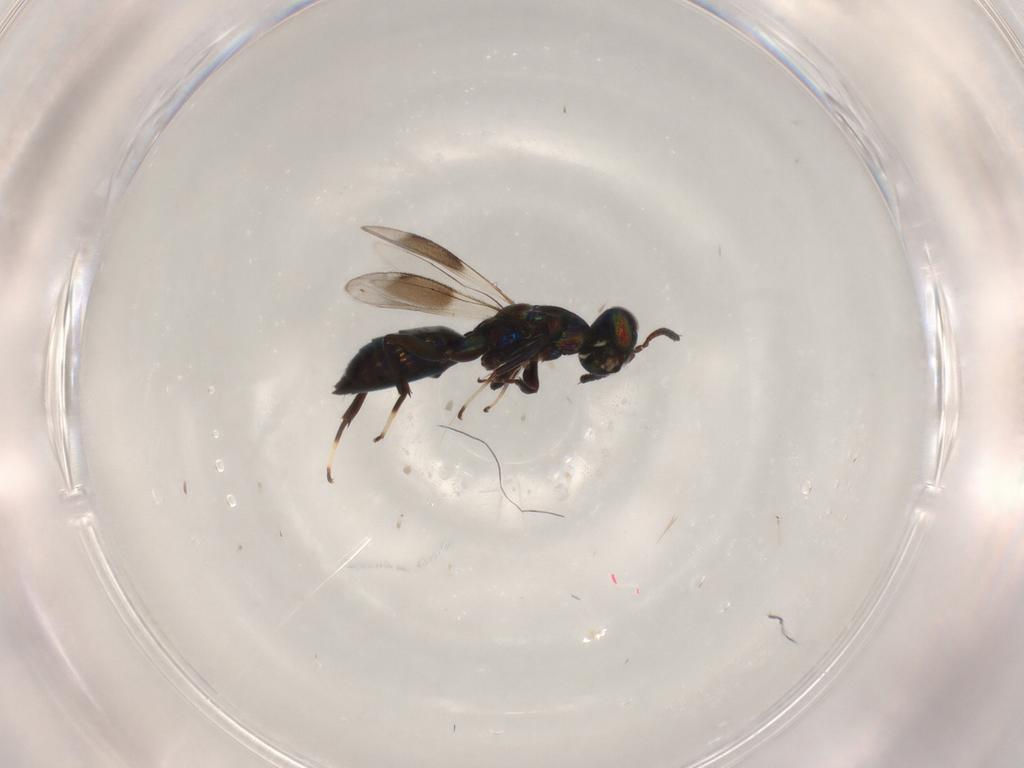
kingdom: Animalia
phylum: Arthropoda
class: Insecta
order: Hymenoptera
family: Cleonyminae
